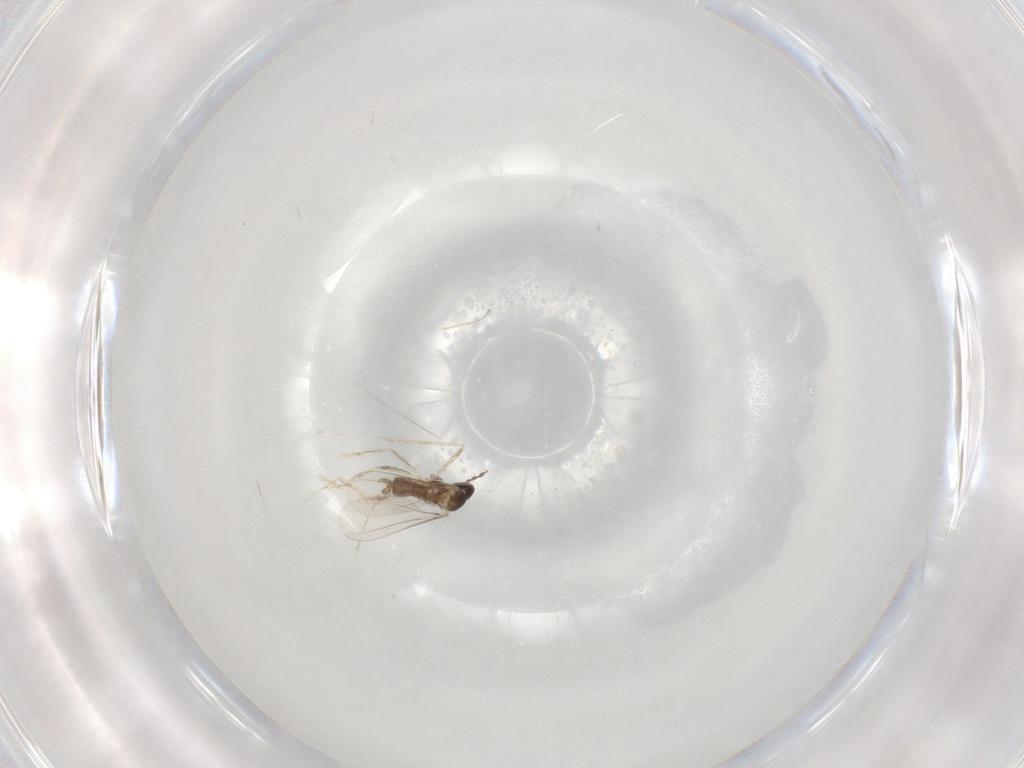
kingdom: Animalia
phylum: Arthropoda
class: Insecta
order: Diptera
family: Cecidomyiidae
